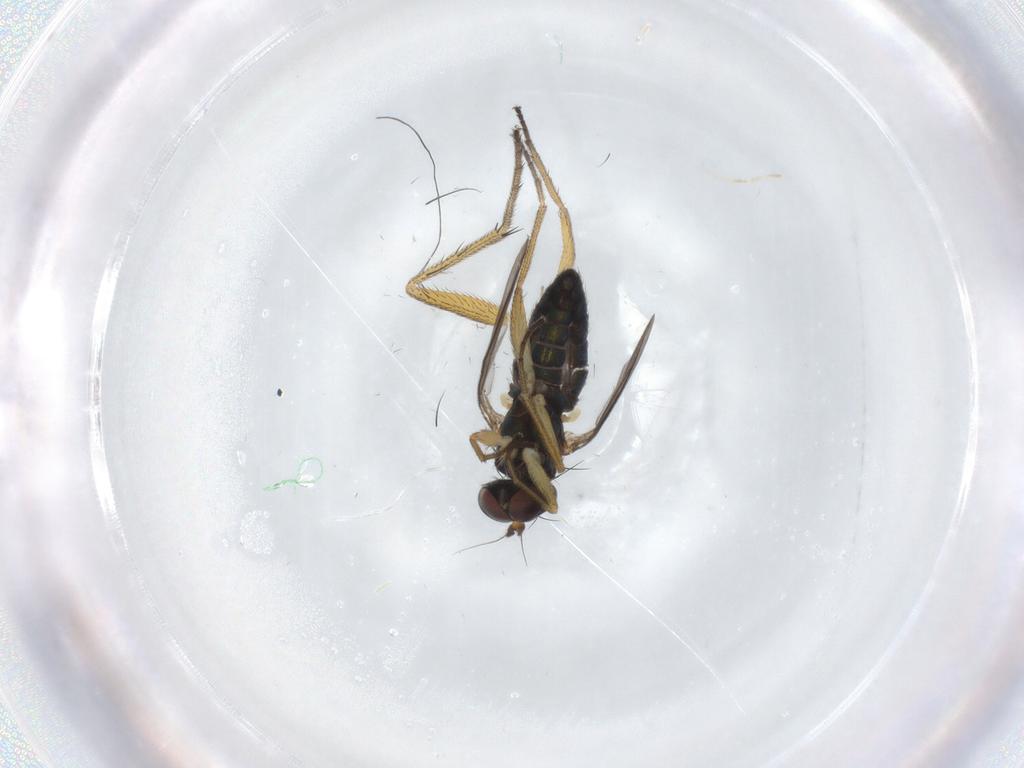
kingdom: Animalia
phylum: Arthropoda
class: Insecta
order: Diptera
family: Dolichopodidae
